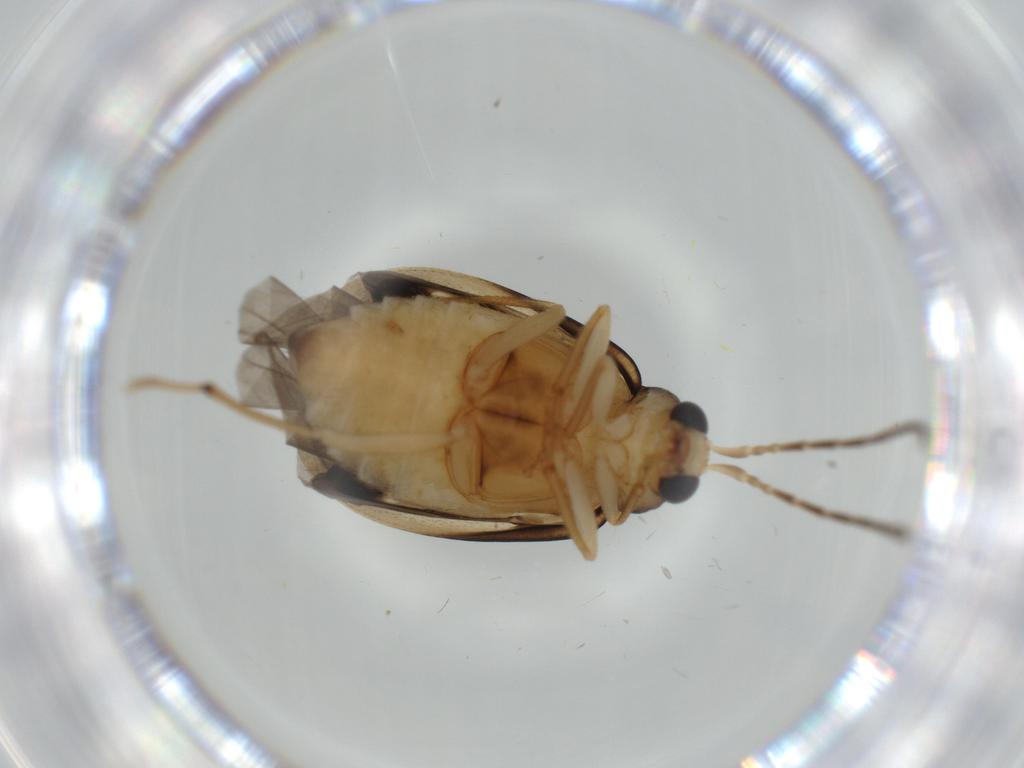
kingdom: Animalia
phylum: Arthropoda
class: Insecta
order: Coleoptera
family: Chrysomelidae
